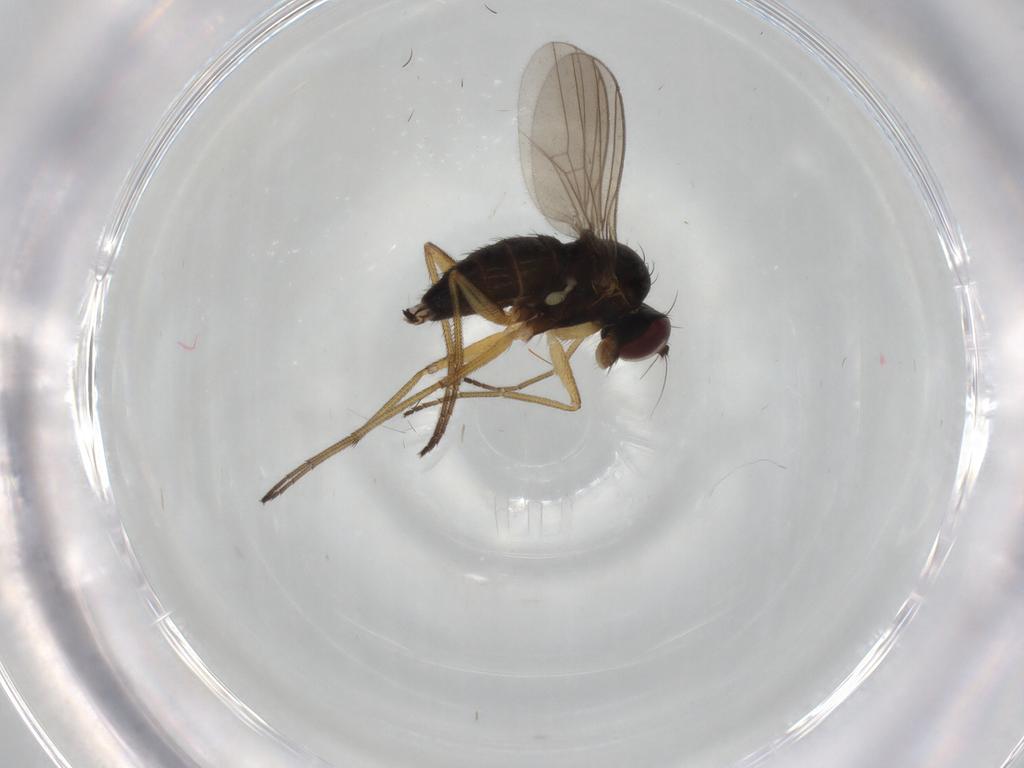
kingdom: Animalia
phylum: Arthropoda
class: Insecta
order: Diptera
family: Dolichopodidae
